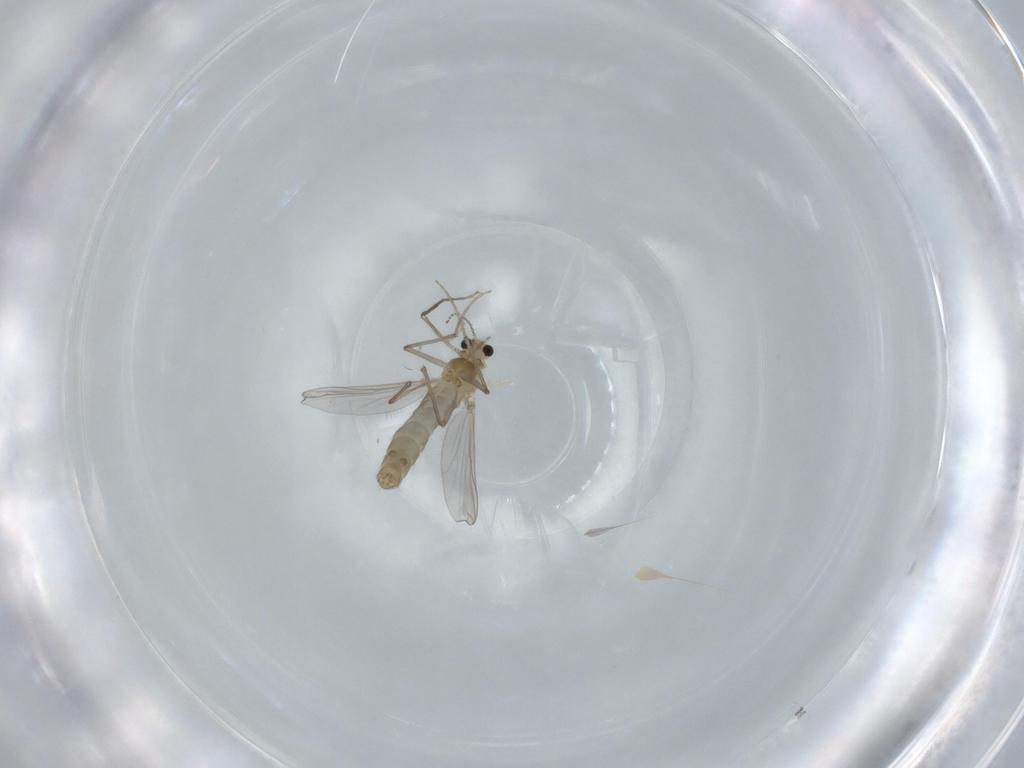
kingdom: Animalia
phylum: Arthropoda
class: Insecta
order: Diptera
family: Chironomidae
